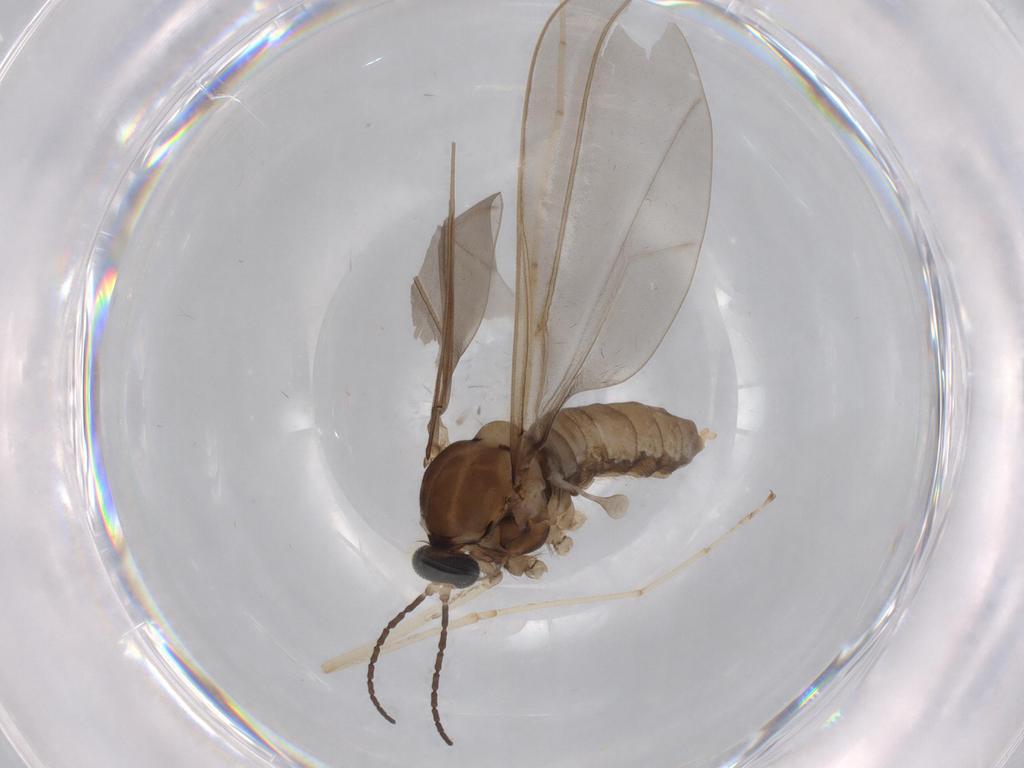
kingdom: Animalia
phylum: Arthropoda
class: Insecta
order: Diptera
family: Cecidomyiidae
